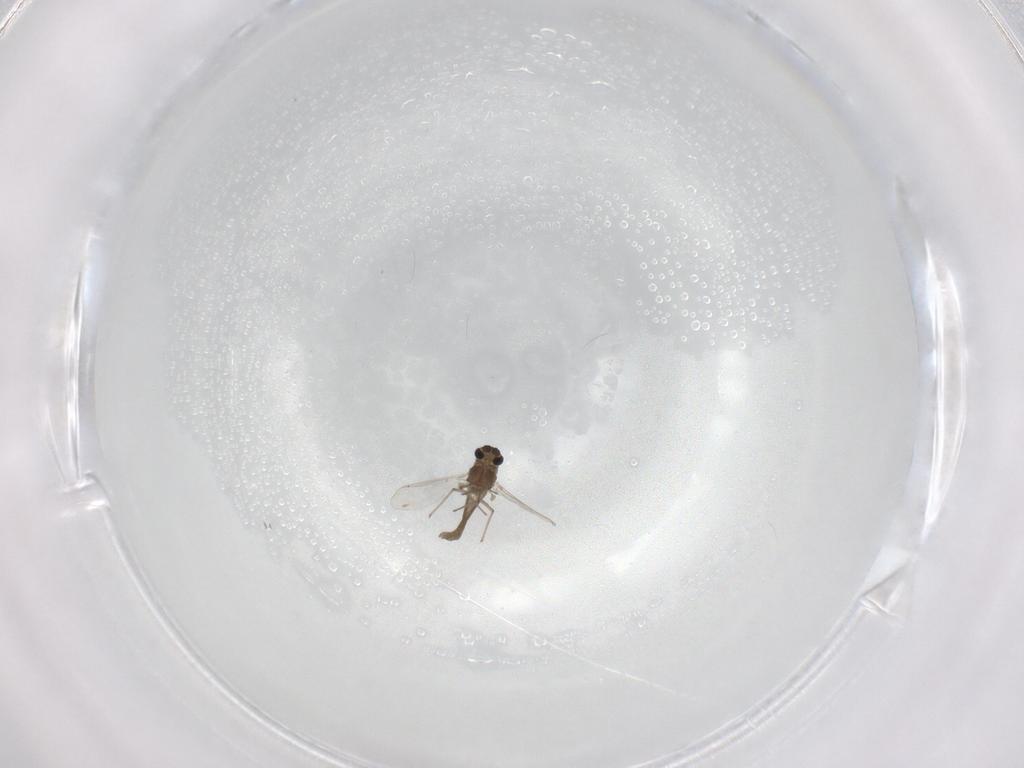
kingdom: Animalia
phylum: Arthropoda
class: Insecta
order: Diptera
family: Chironomidae
